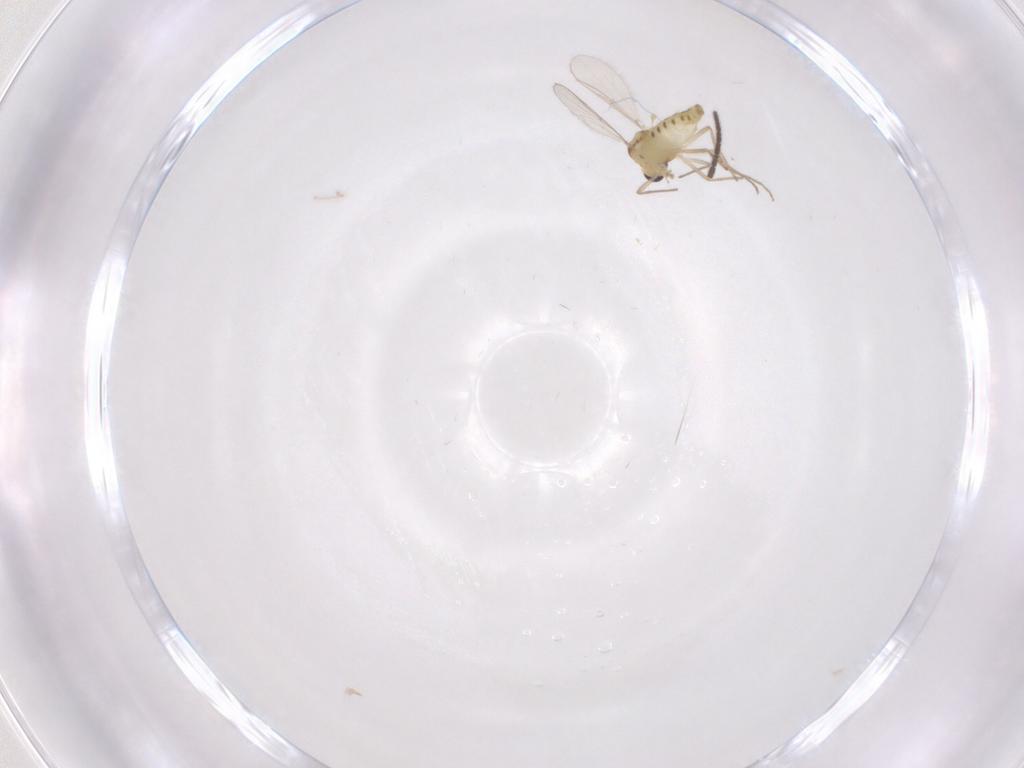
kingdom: Animalia
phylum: Arthropoda
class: Insecta
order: Diptera
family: Chironomidae
